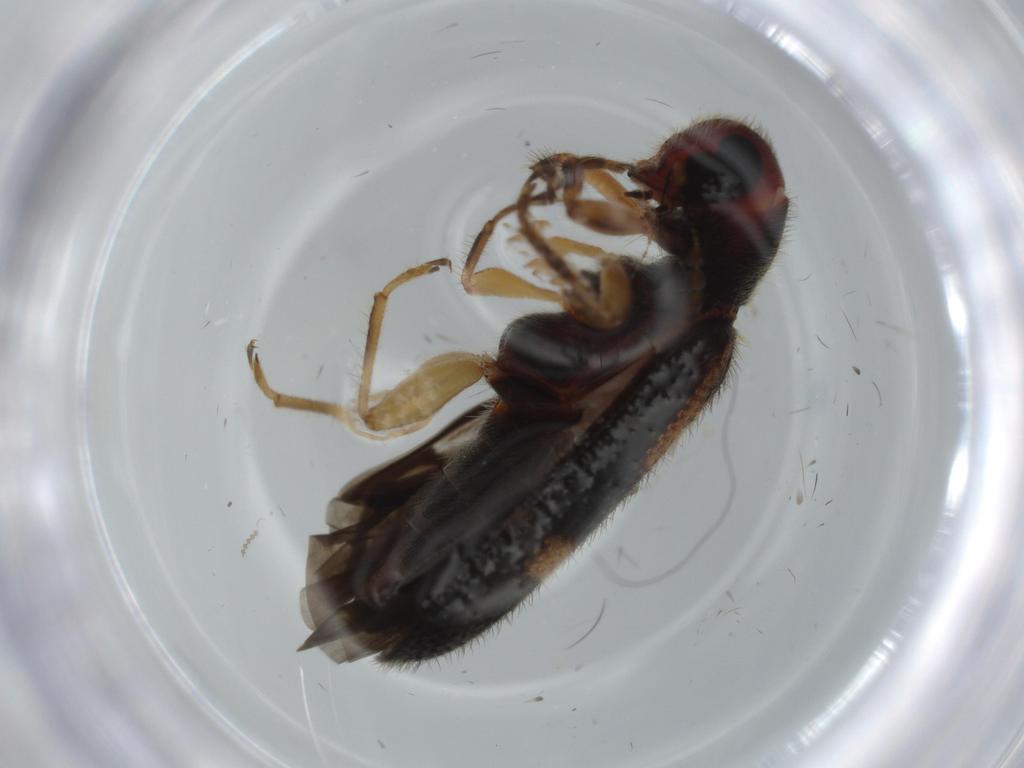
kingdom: Animalia
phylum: Arthropoda
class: Insecta
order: Coleoptera
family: Cleridae
